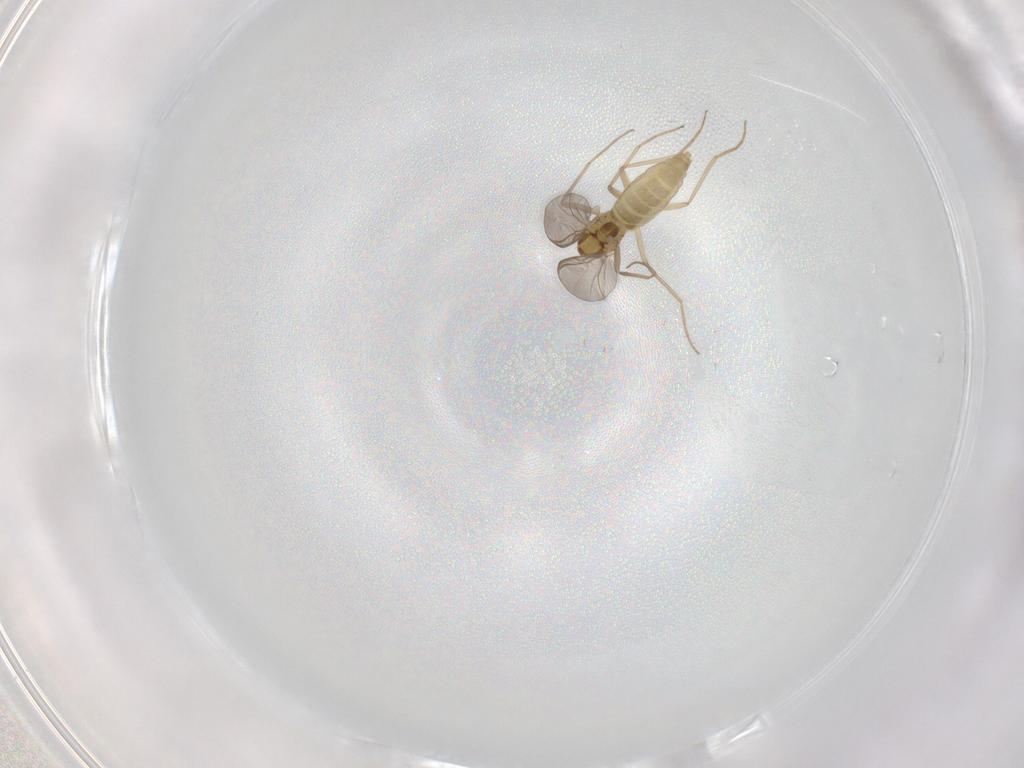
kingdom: Animalia
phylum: Arthropoda
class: Insecta
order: Diptera
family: Chironomidae
